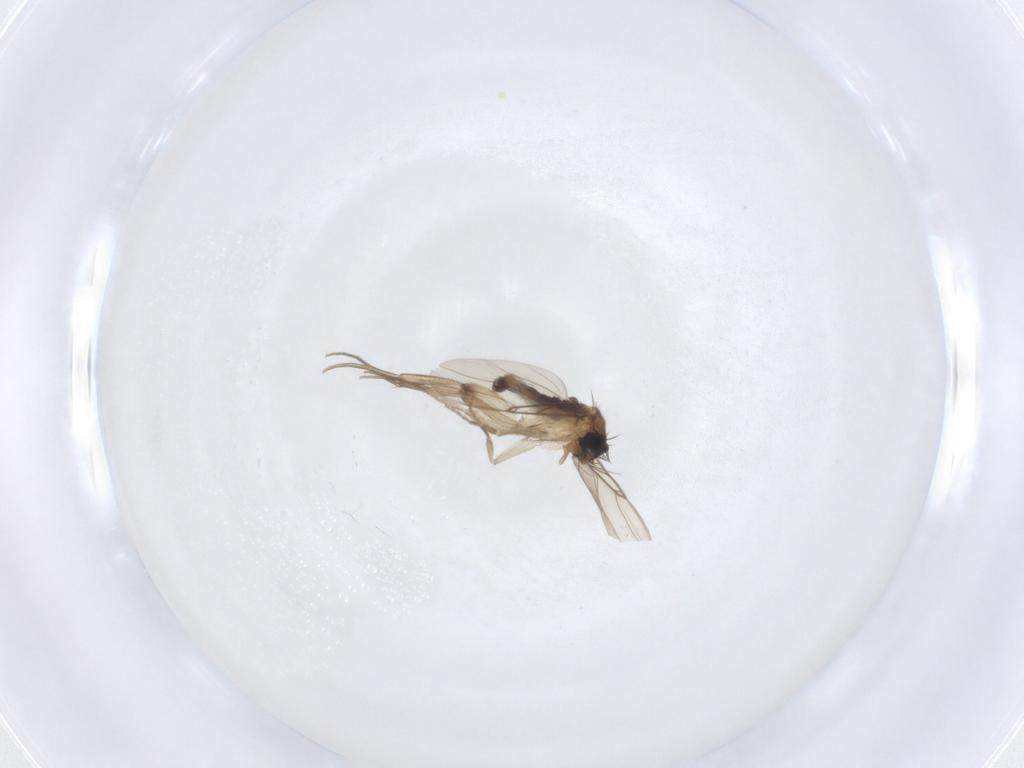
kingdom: Animalia
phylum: Arthropoda
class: Insecta
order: Diptera
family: Phoridae
